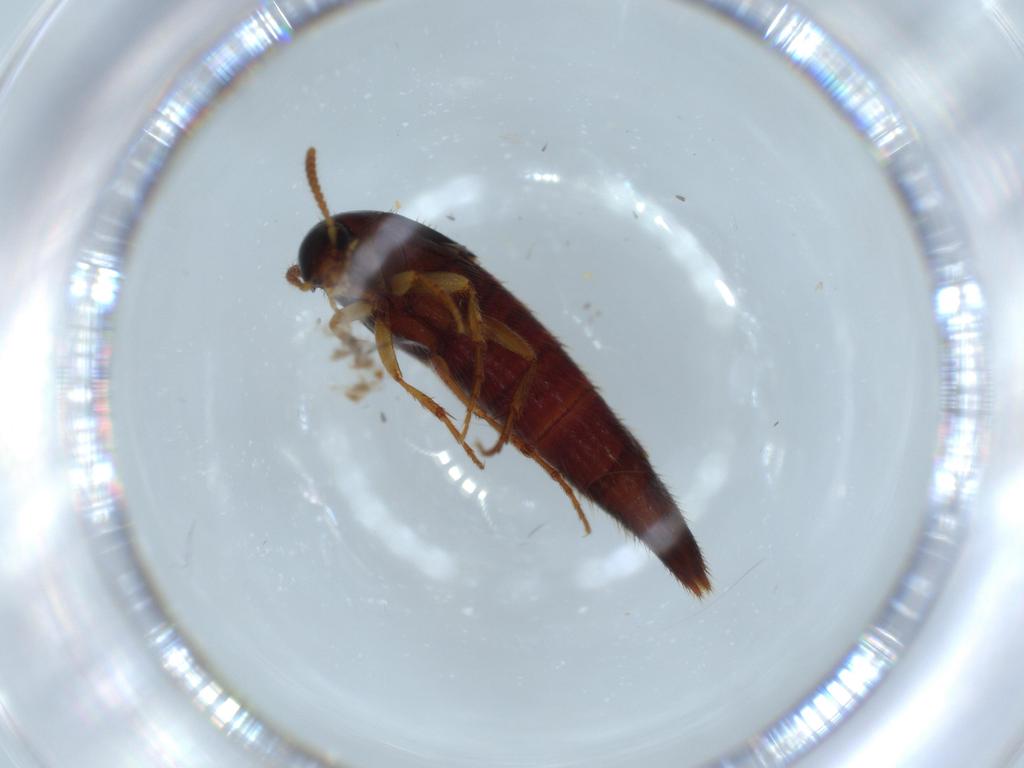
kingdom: Animalia
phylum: Arthropoda
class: Insecta
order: Coleoptera
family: Staphylinidae
